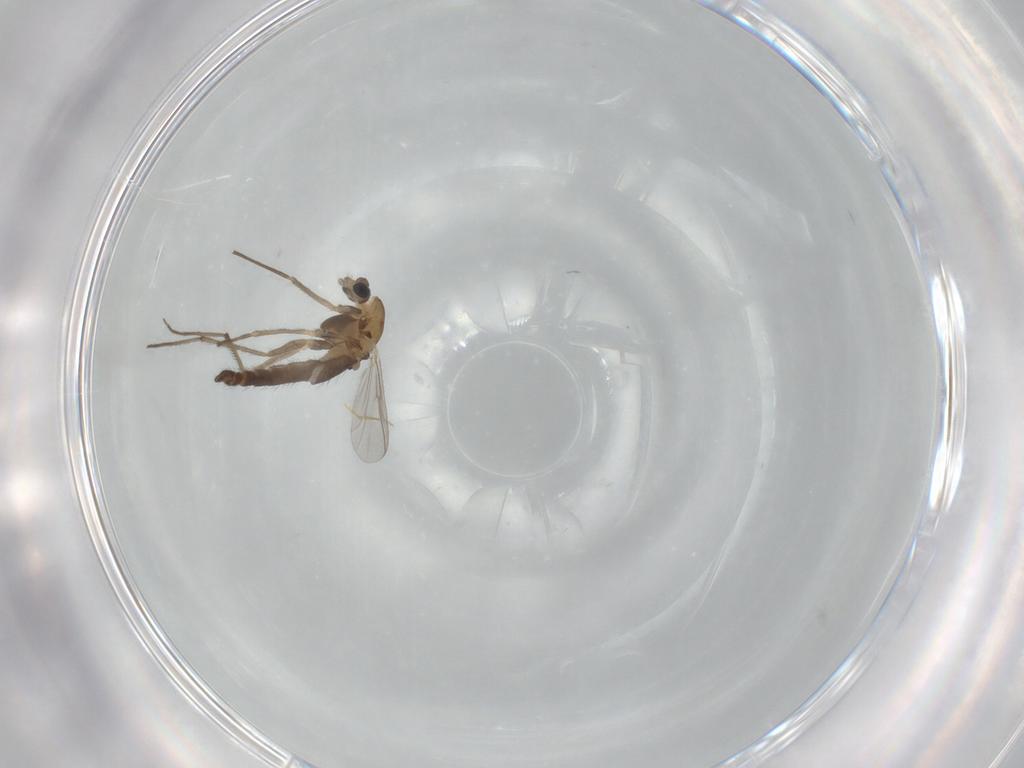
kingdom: Animalia
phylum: Arthropoda
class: Insecta
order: Diptera
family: Chironomidae
